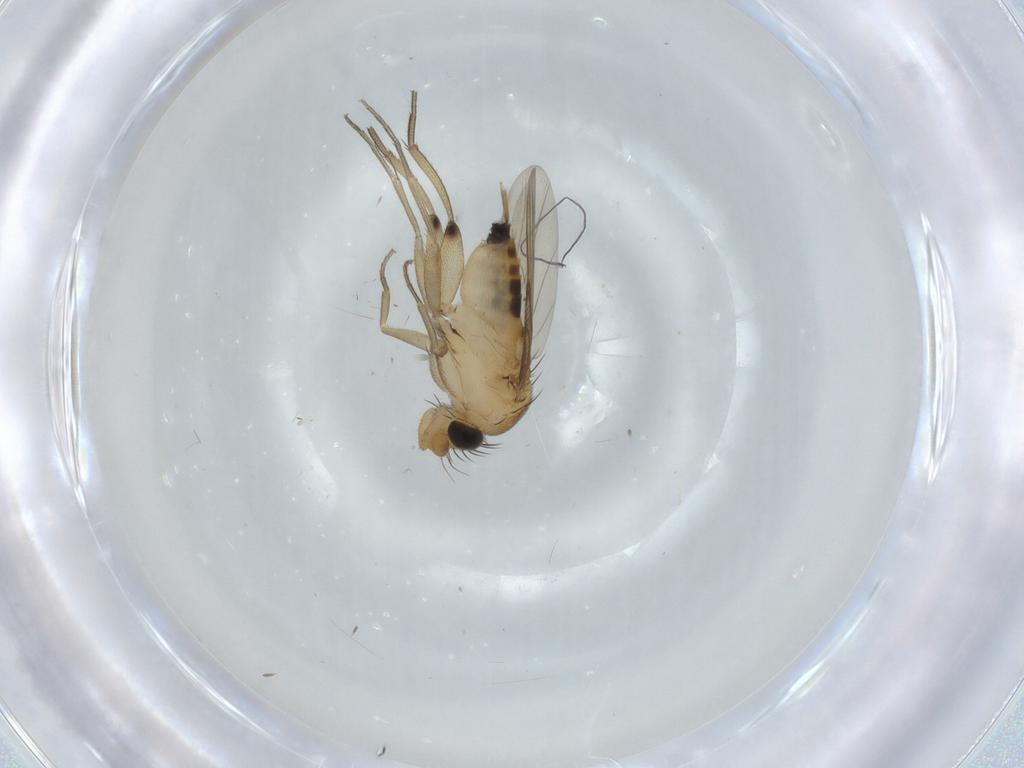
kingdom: Animalia
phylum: Arthropoda
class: Insecta
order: Diptera
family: Phoridae
